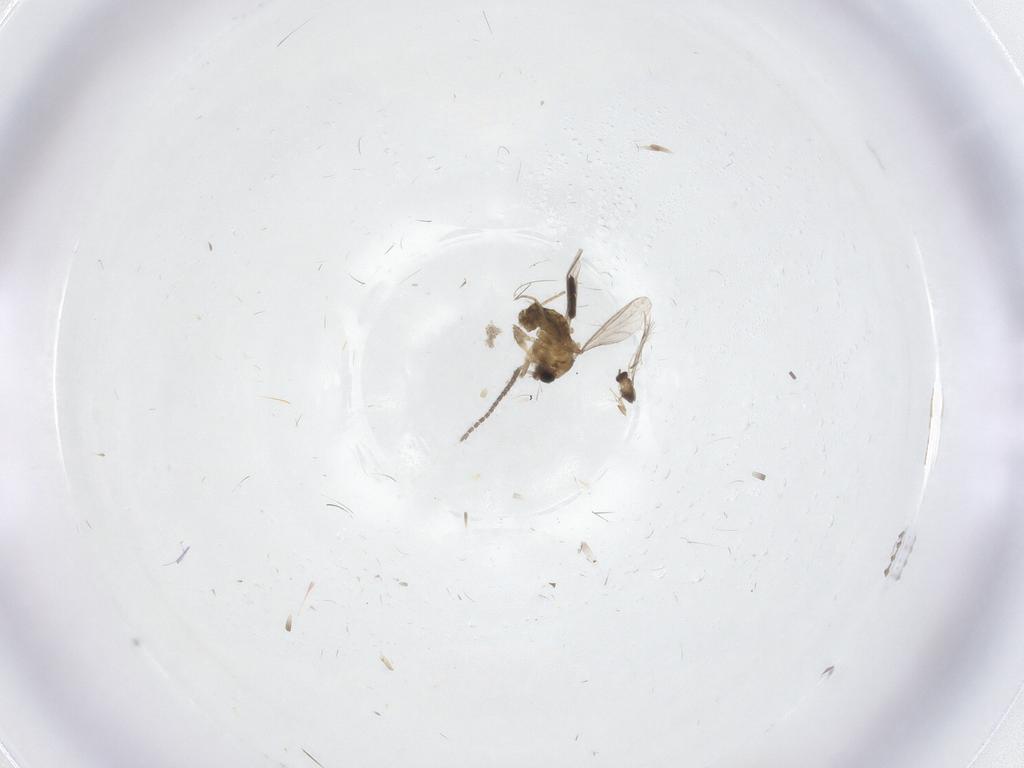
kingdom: Animalia
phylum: Arthropoda
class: Insecta
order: Diptera
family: Psychodidae
